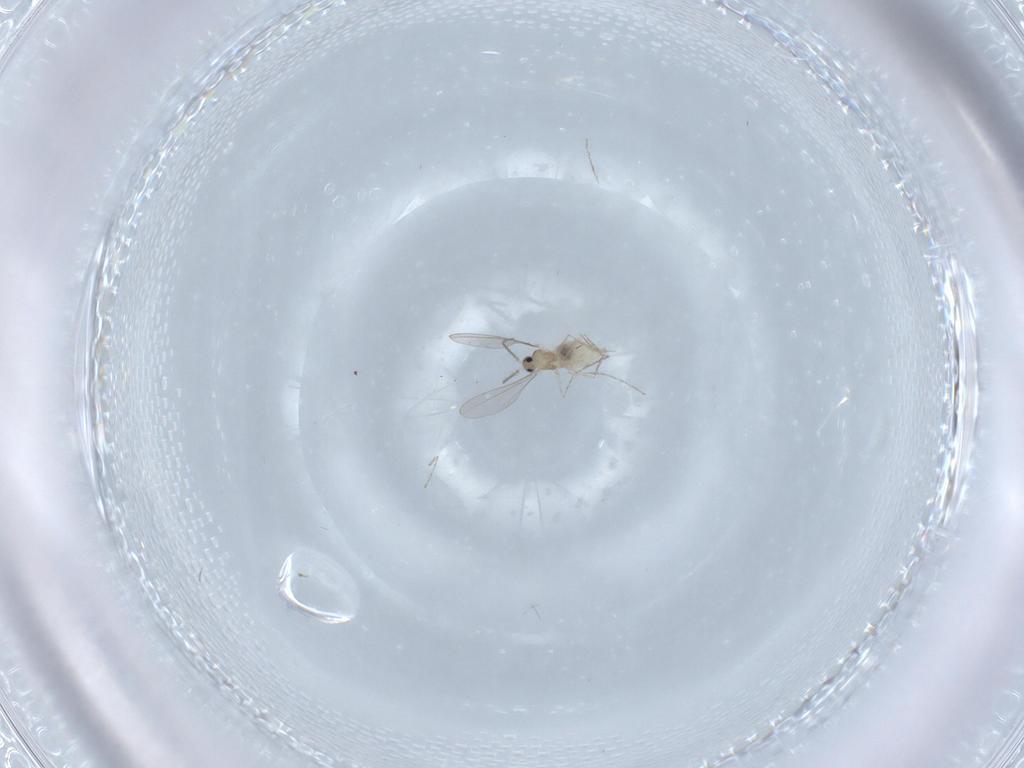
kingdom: Animalia
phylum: Arthropoda
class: Insecta
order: Diptera
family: Cecidomyiidae
